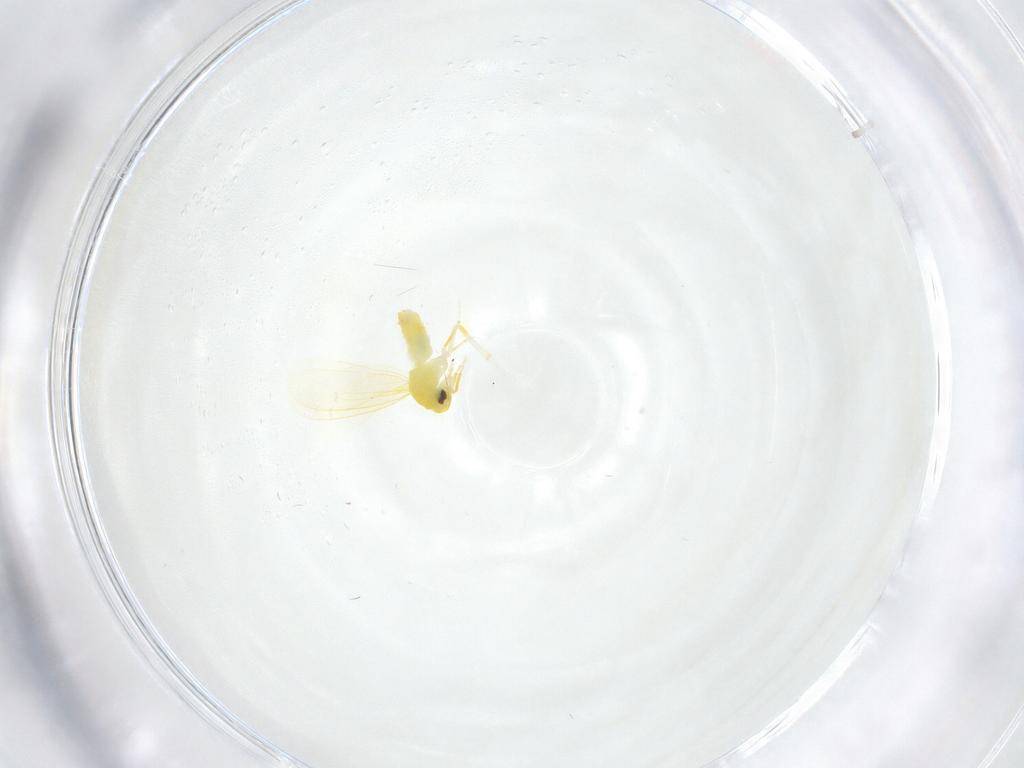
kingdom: Animalia
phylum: Arthropoda
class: Insecta
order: Hemiptera
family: Aleyrodidae
